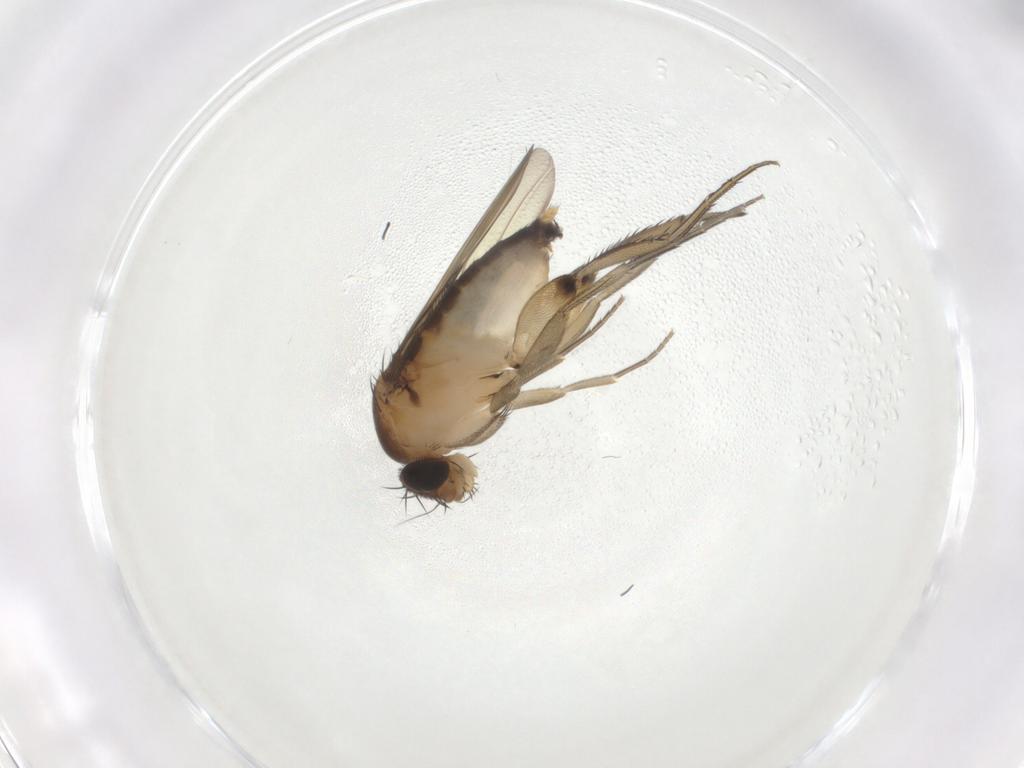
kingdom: Animalia
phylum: Arthropoda
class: Insecta
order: Diptera
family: Phoridae
